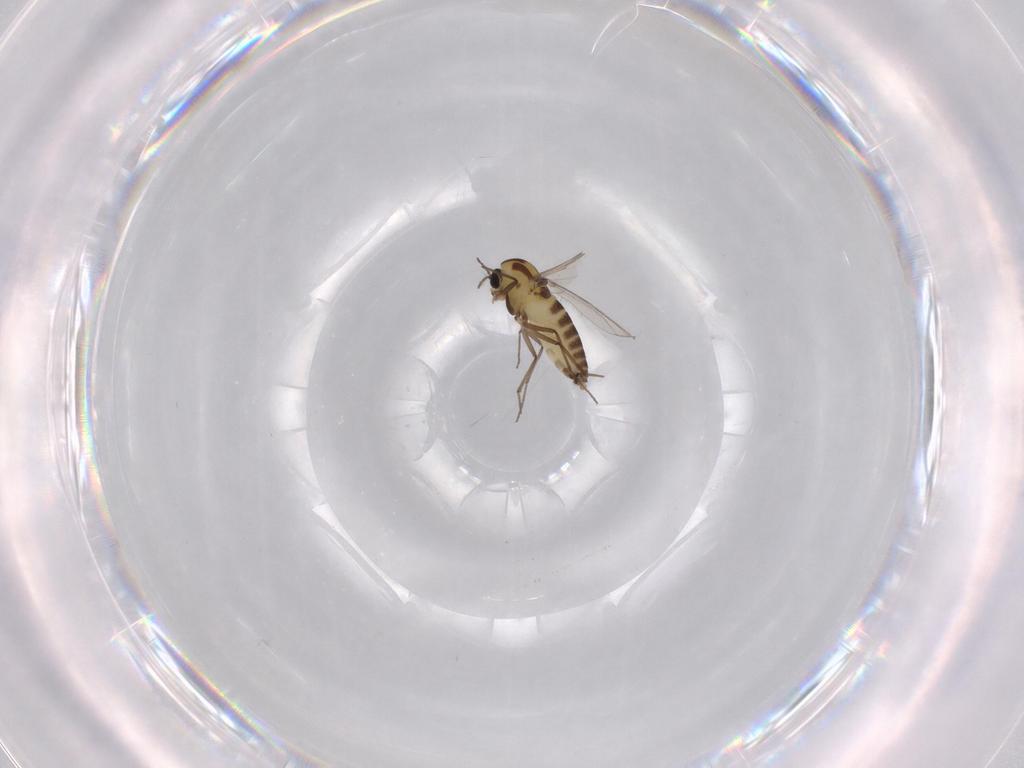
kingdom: Animalia
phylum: Arthropoda
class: Insecta
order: Diptera
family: Chironomidae
